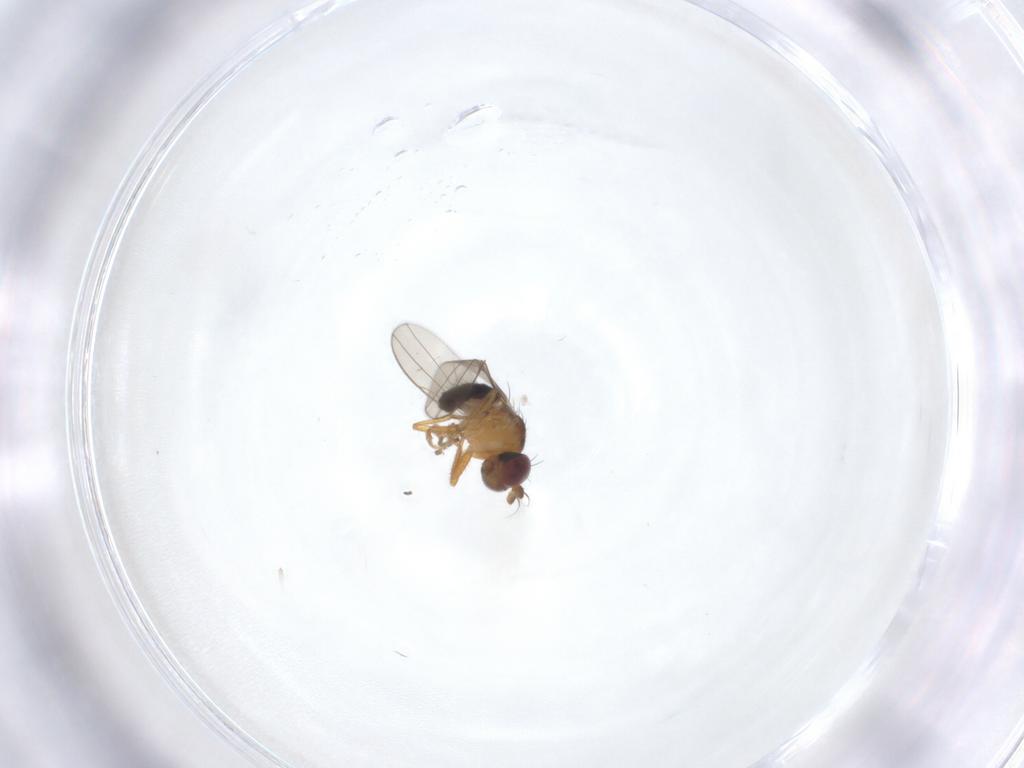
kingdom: Animalia
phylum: Arthropoda
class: Insecta
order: Diptera
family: Ephydridae
